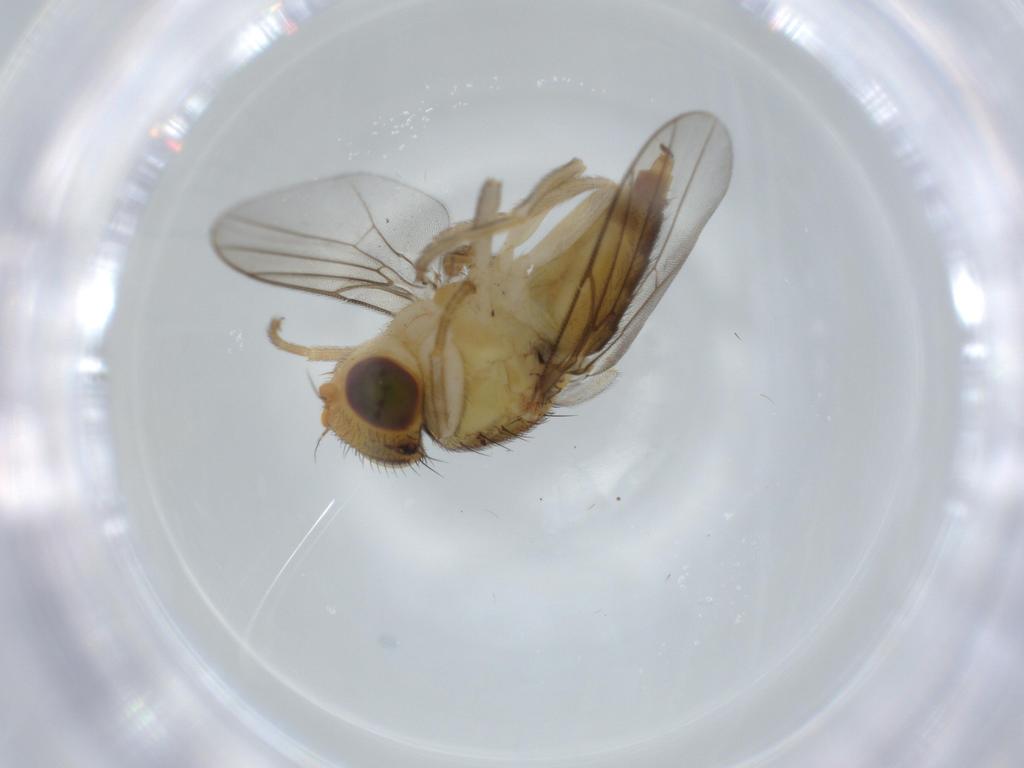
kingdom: Animalia
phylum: Arthropoda
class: Insecta
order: Diptera
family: Chloropidae
